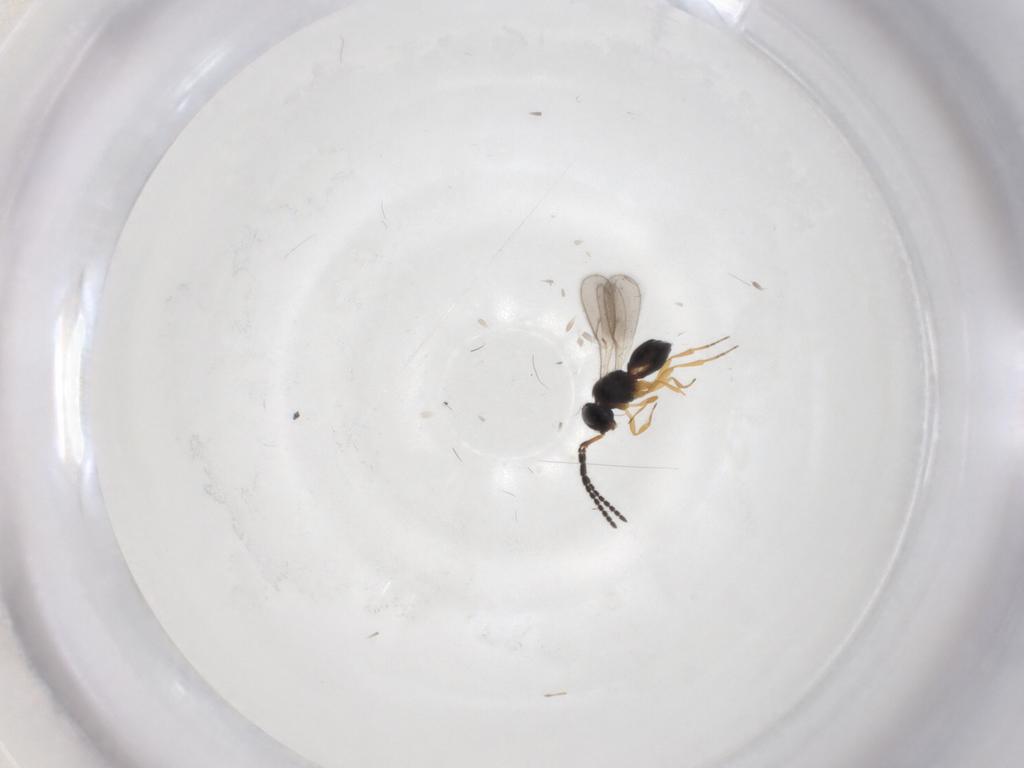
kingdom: Animalia
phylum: Arthropoda
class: Insecta
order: Hymenoptera
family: Scelionidae
